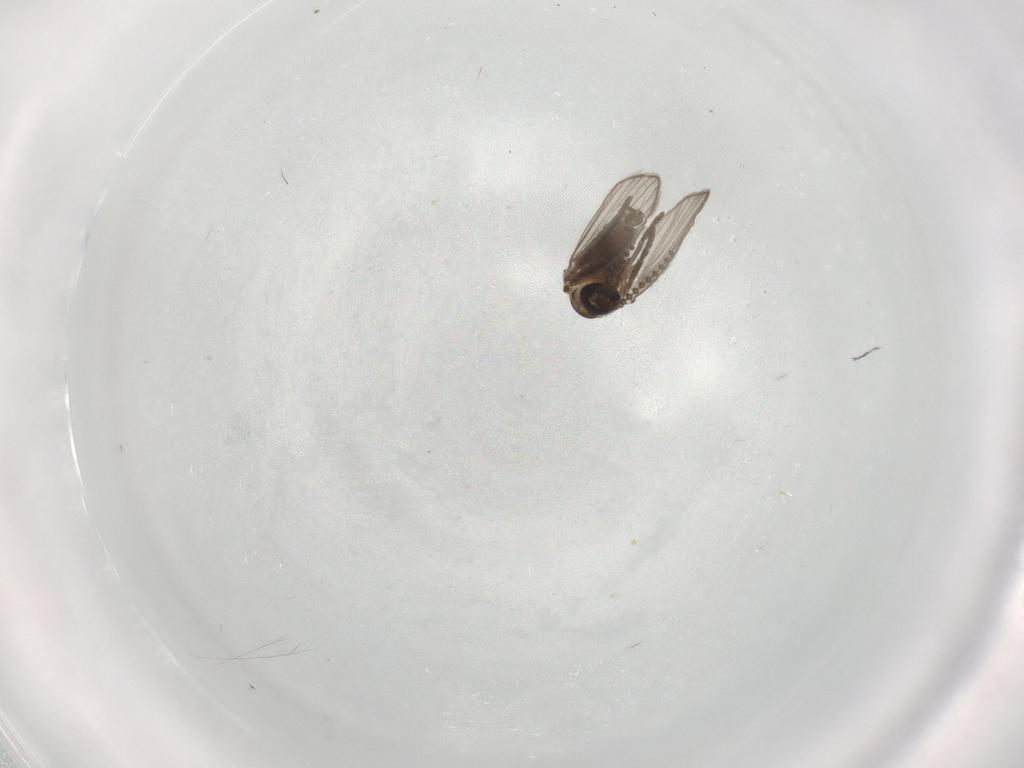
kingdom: Animalia
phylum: Arthropoda
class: Insecta
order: Diptera
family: Psychodidae
